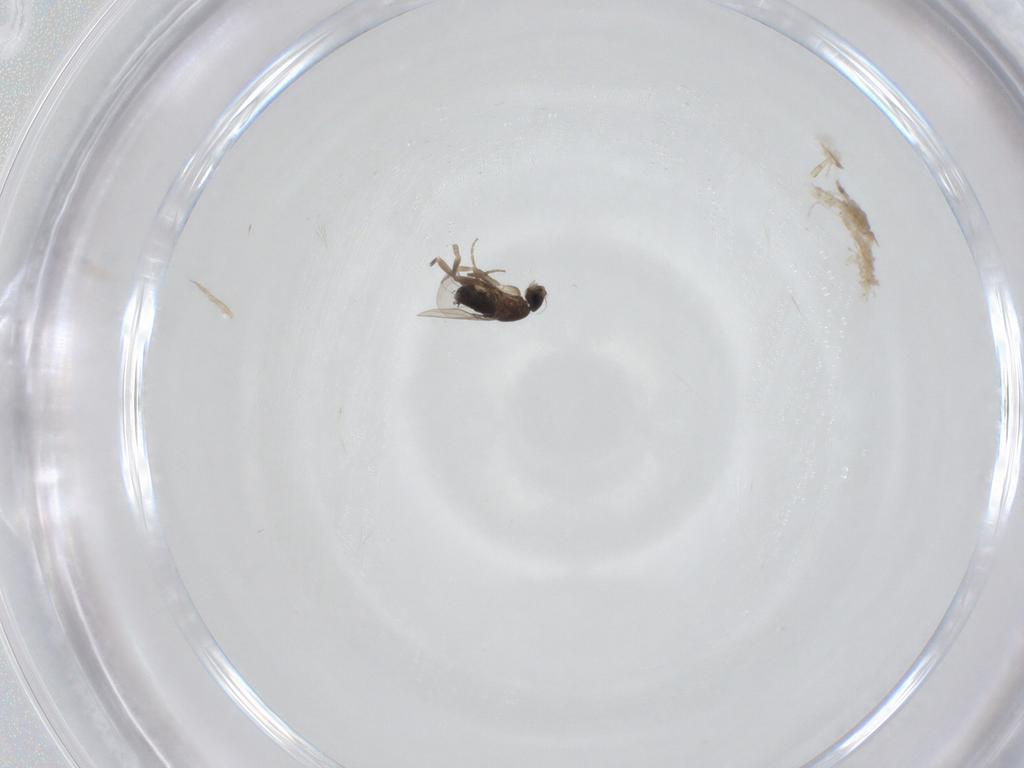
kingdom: Animalia
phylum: Arthropoda
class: Insecta
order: Diptera
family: Phoridae
